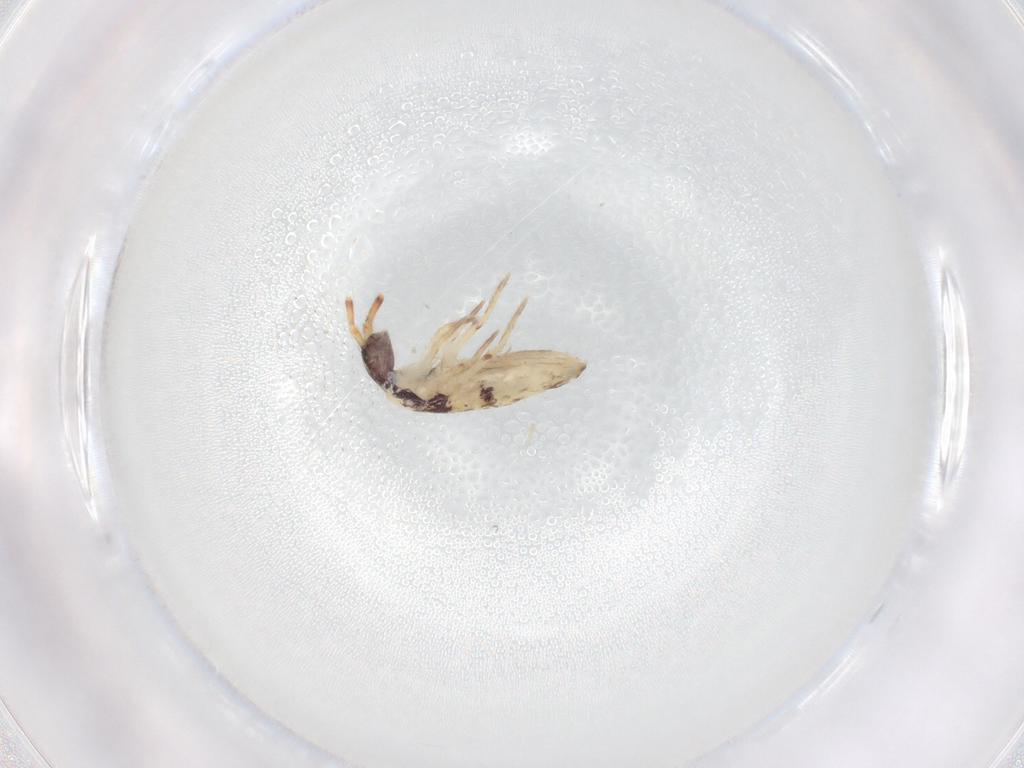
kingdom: Animalia
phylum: Arthropoda
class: Collembola
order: Entomobryomorpha
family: Entomobryidae
